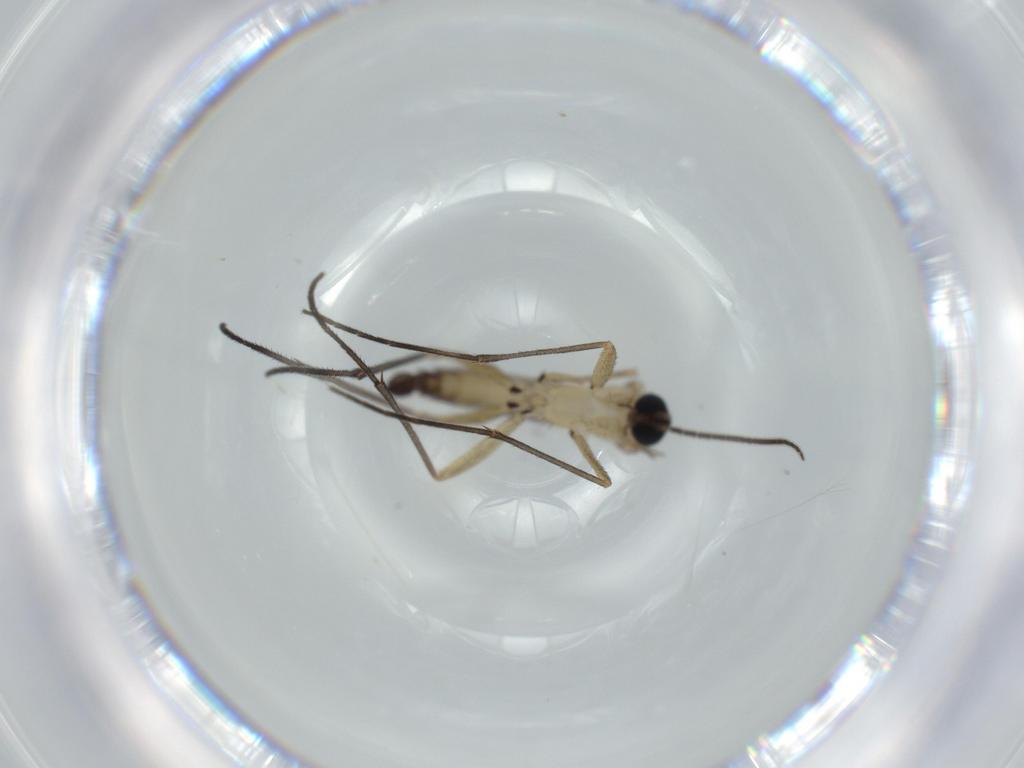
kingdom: Animalia
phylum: Arthropoda
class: Insecta
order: Diptera
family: Sciaridae
